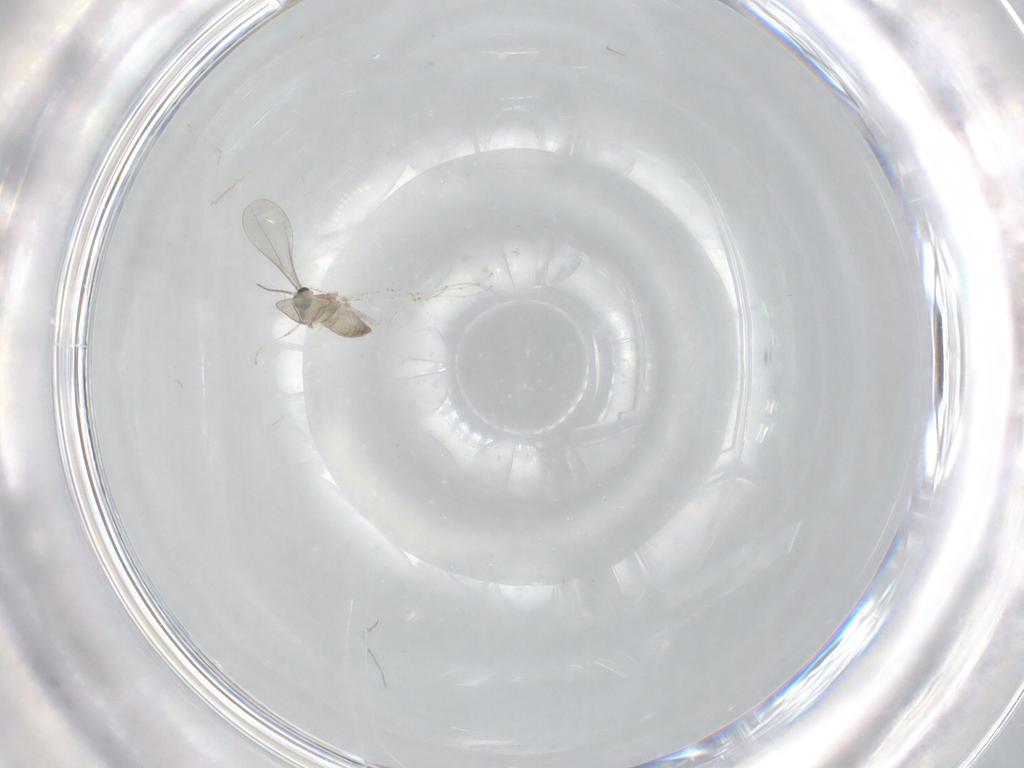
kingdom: Animalia
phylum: Arthropoda
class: Insecta
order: Diptera
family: Cecidomyiidae
